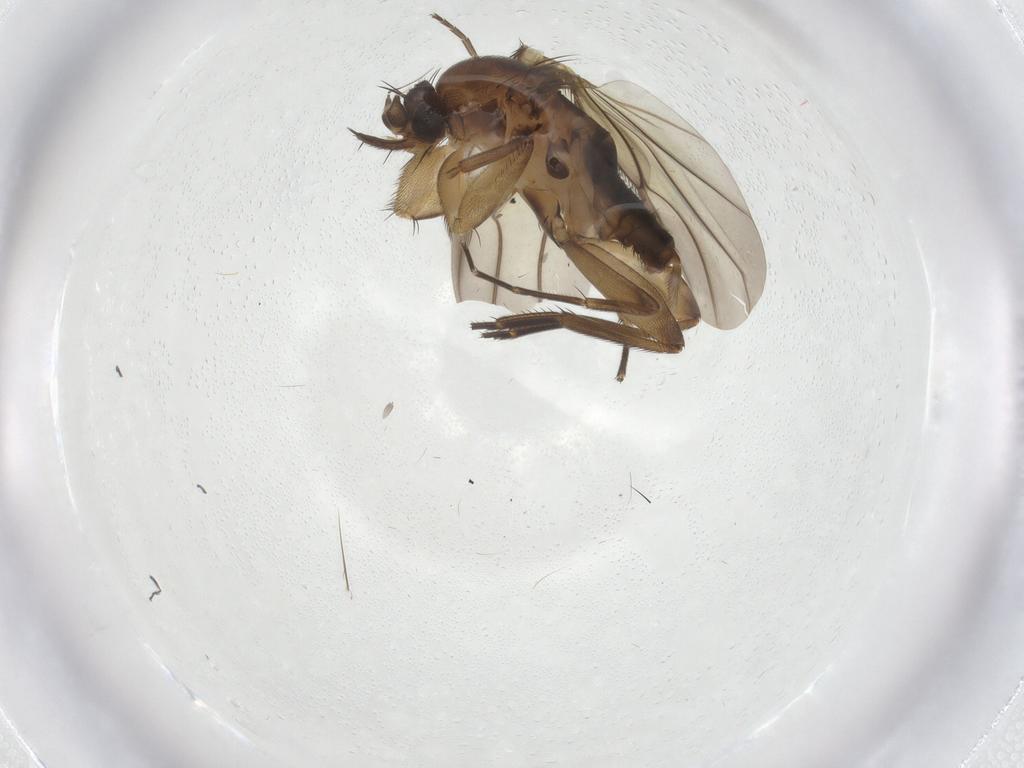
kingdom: Animalia
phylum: Arthropoda
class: Insecta
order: Diptera
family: Phoridae
